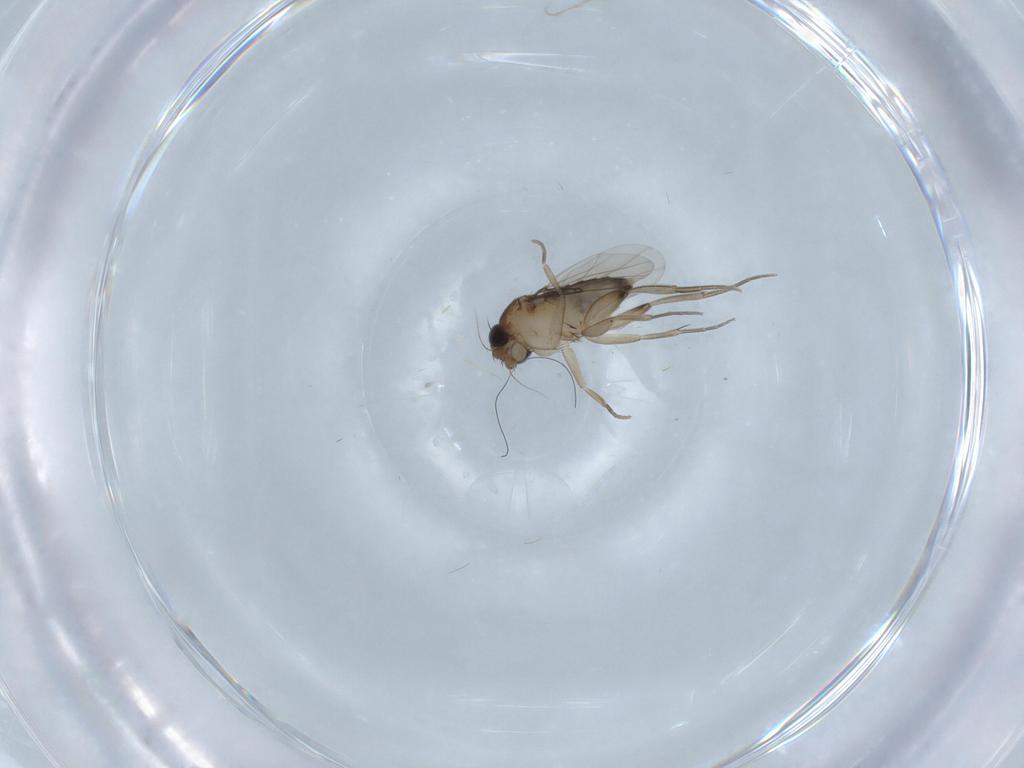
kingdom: Animalia
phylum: Arthropoda
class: Insecta
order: Diptera
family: Phoridae
